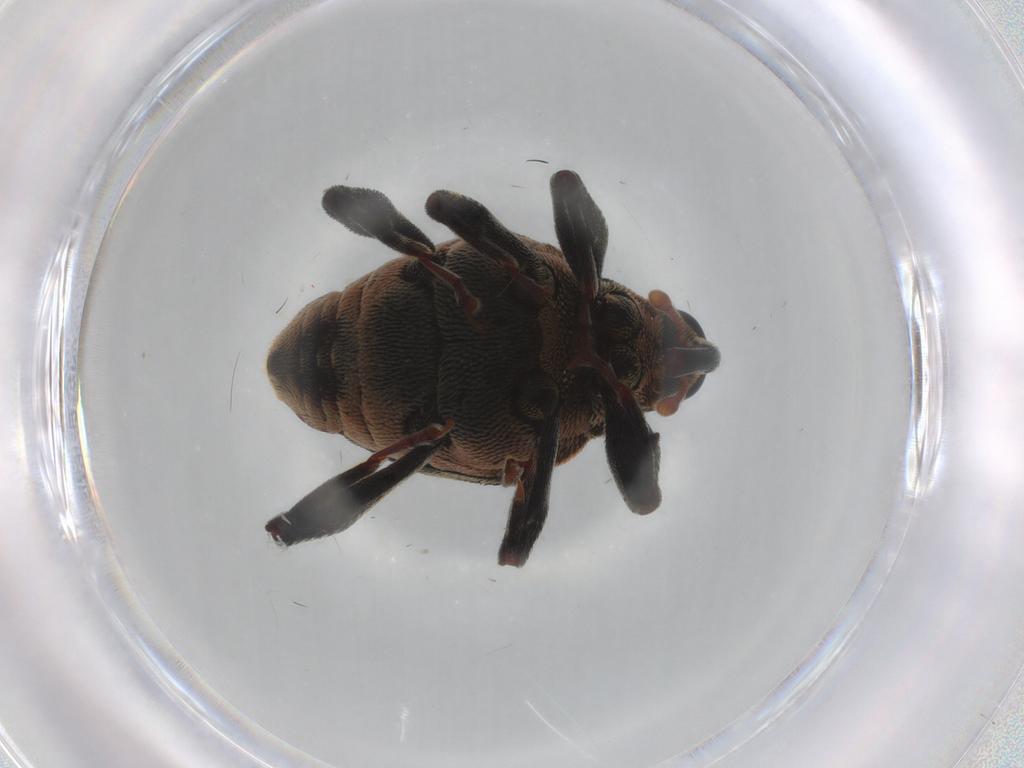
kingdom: Animalia
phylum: Arthropoda
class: Insecta
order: Coleoptera
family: Curculionidae
